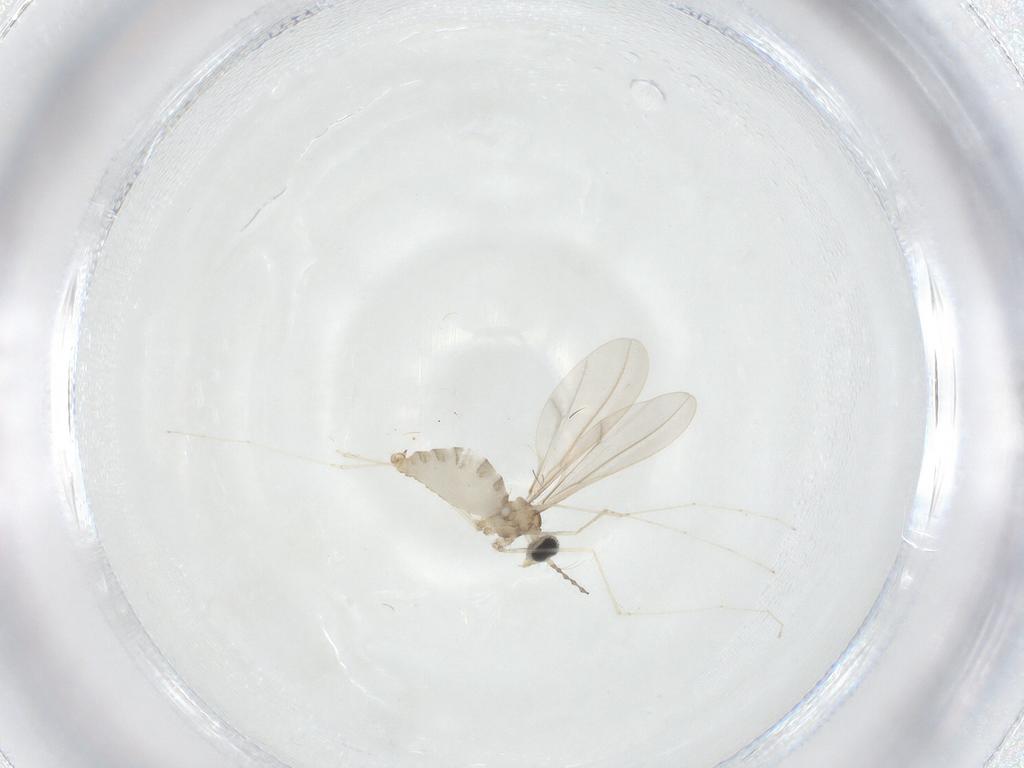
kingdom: Animalia
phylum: Arthropoda
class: Insecta
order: Diptera
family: Cecidomyiidae
